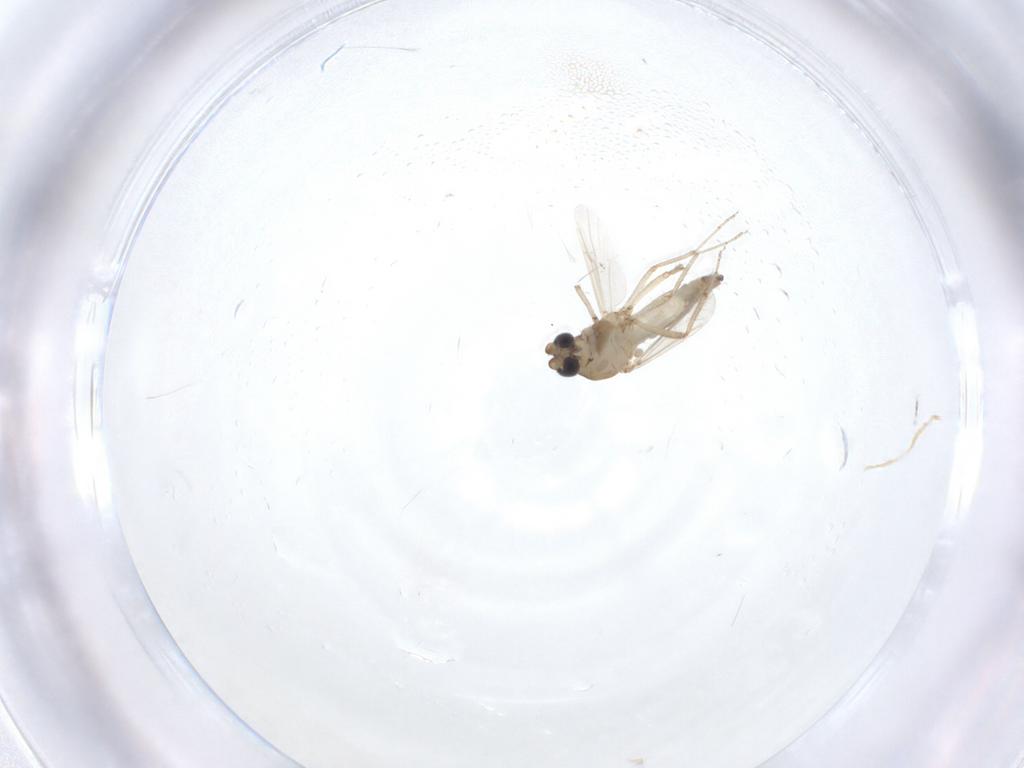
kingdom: Animalia
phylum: Arthropoda
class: Insecta
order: Diptera
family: Ceratopogonidae
